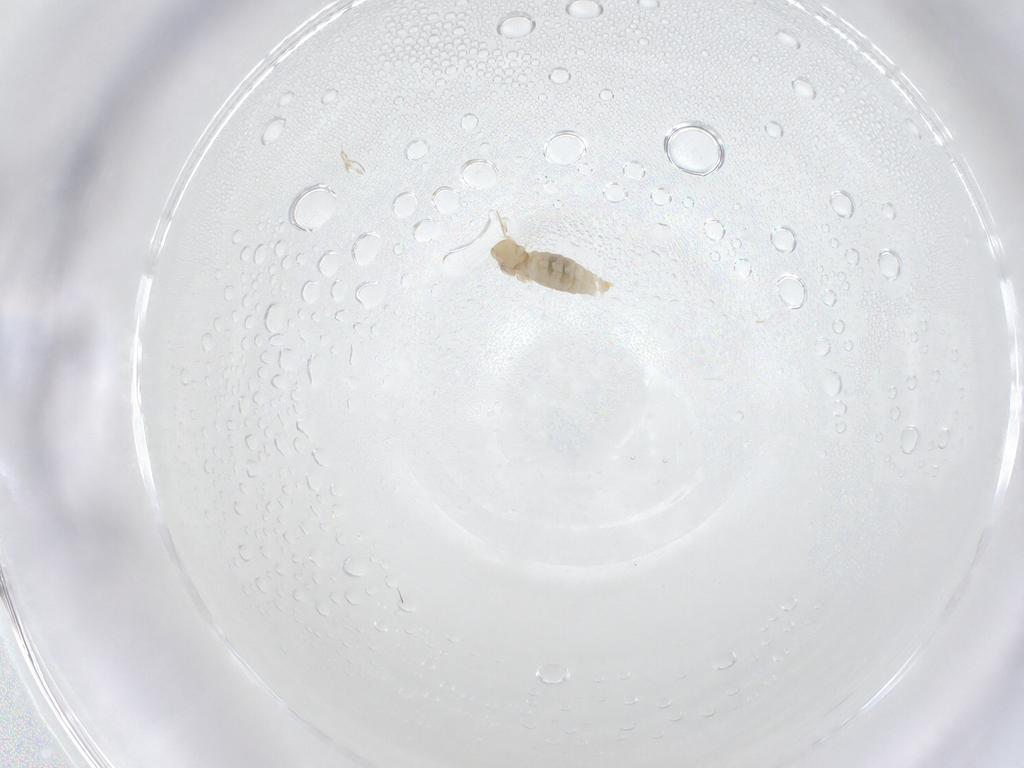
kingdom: Animalia
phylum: Arthropoda
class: Insecta
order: Diptera
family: Cecidomyiidae
